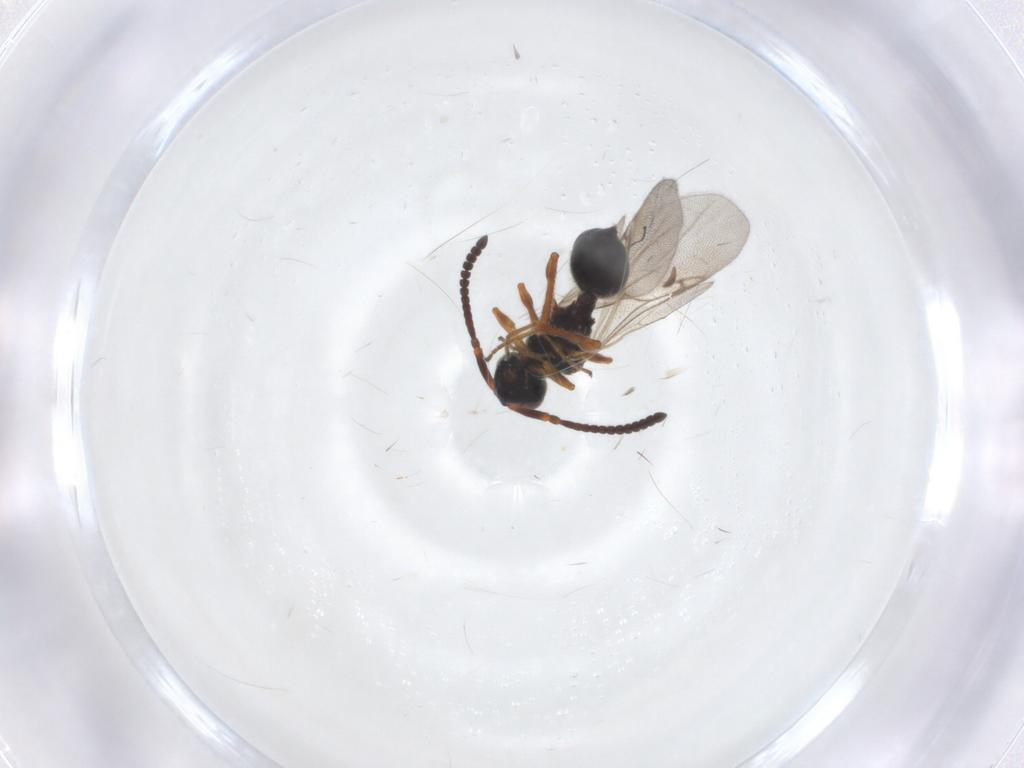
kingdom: Animalia
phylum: Arthropoda
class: Insecta
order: Hymenoptera
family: Diapriidae
